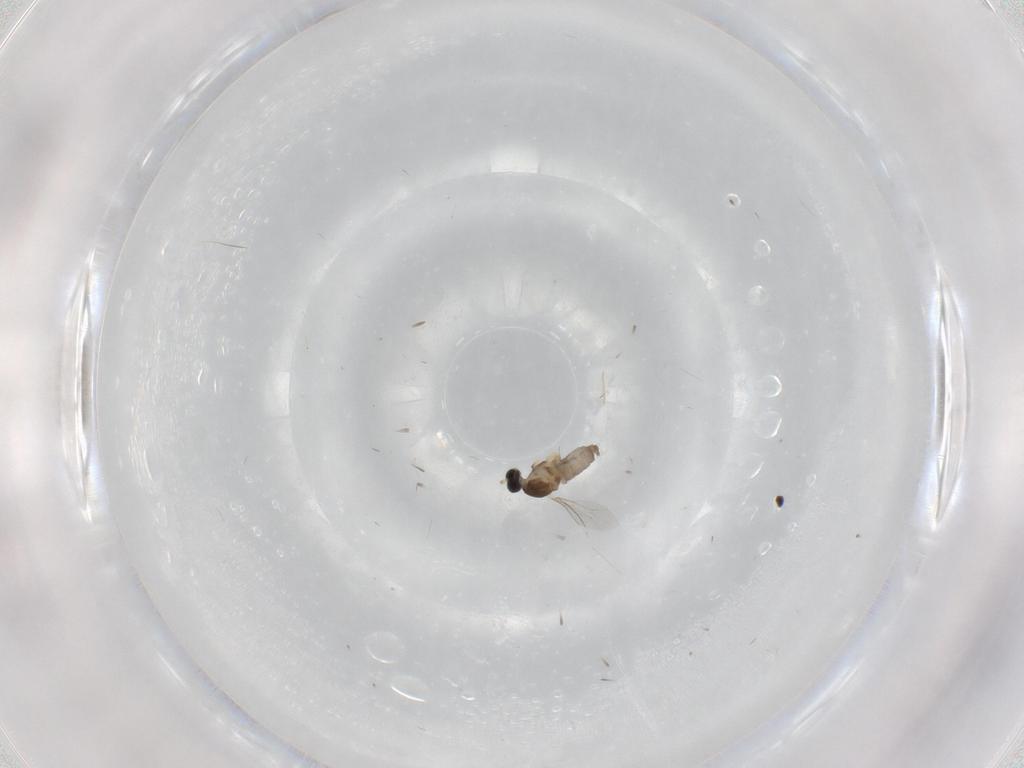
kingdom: Animalia
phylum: Arthropoda
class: Insecta
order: Diptera
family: Cecidomyiidae
